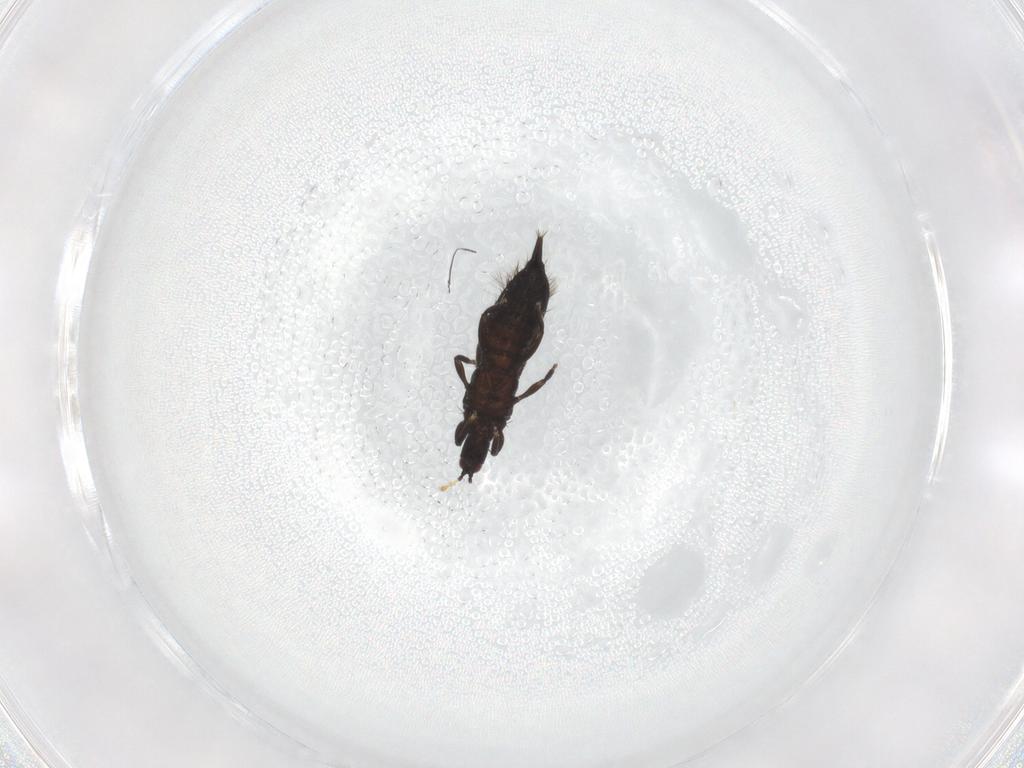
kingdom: Animalia
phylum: Arthropoda
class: Insecta
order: Thysanoptera
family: Phlaeothripidae
